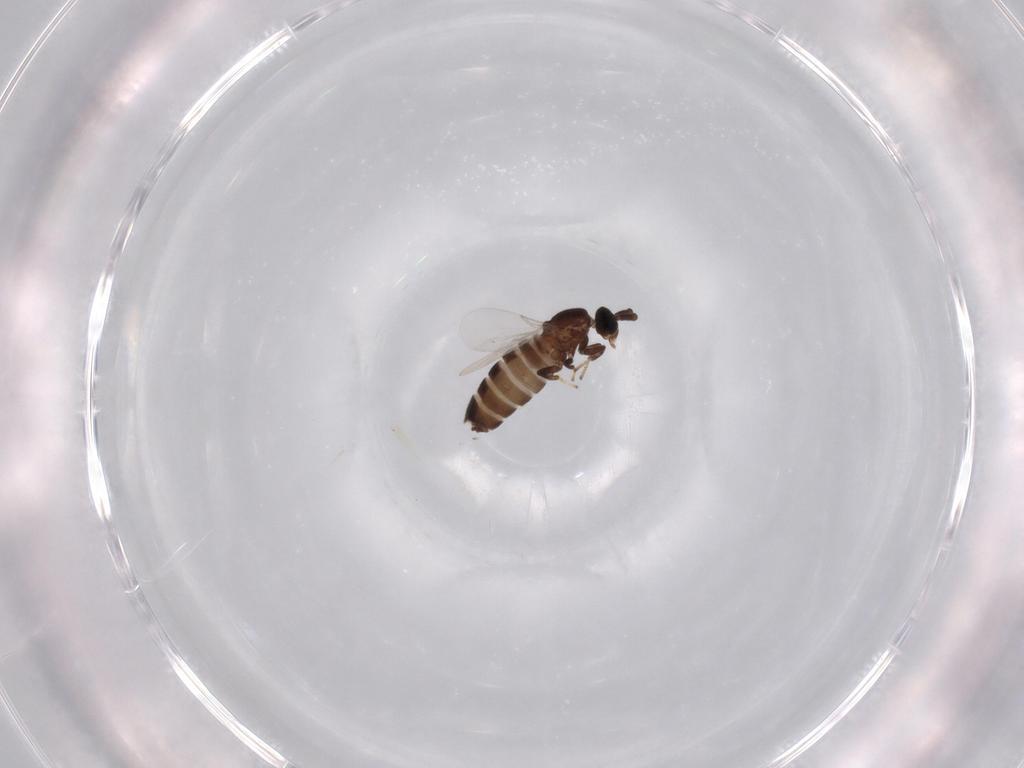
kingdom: Animalia
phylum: Arthropoda
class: Insecta
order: Diptera
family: Scatopsidae
